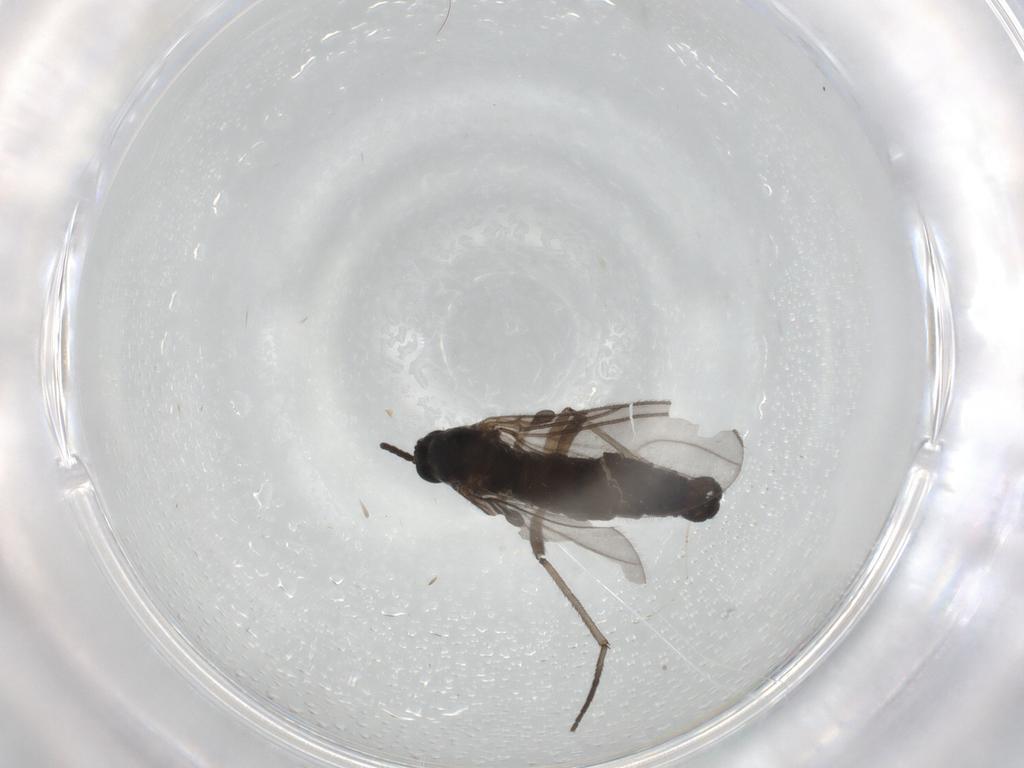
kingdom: Animalia
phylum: Arthropoda
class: Insecta
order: Diptera
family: Sciaridae
